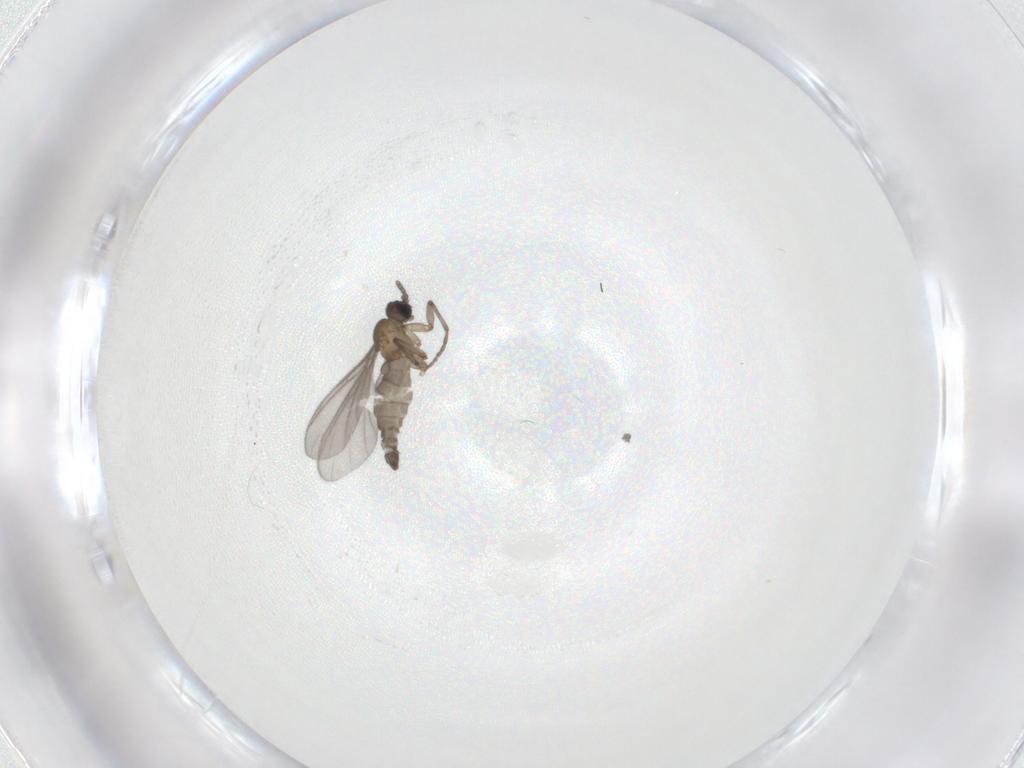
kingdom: Animalia
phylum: Arthropoda
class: Insecta
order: Diptera
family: Sciaridae
